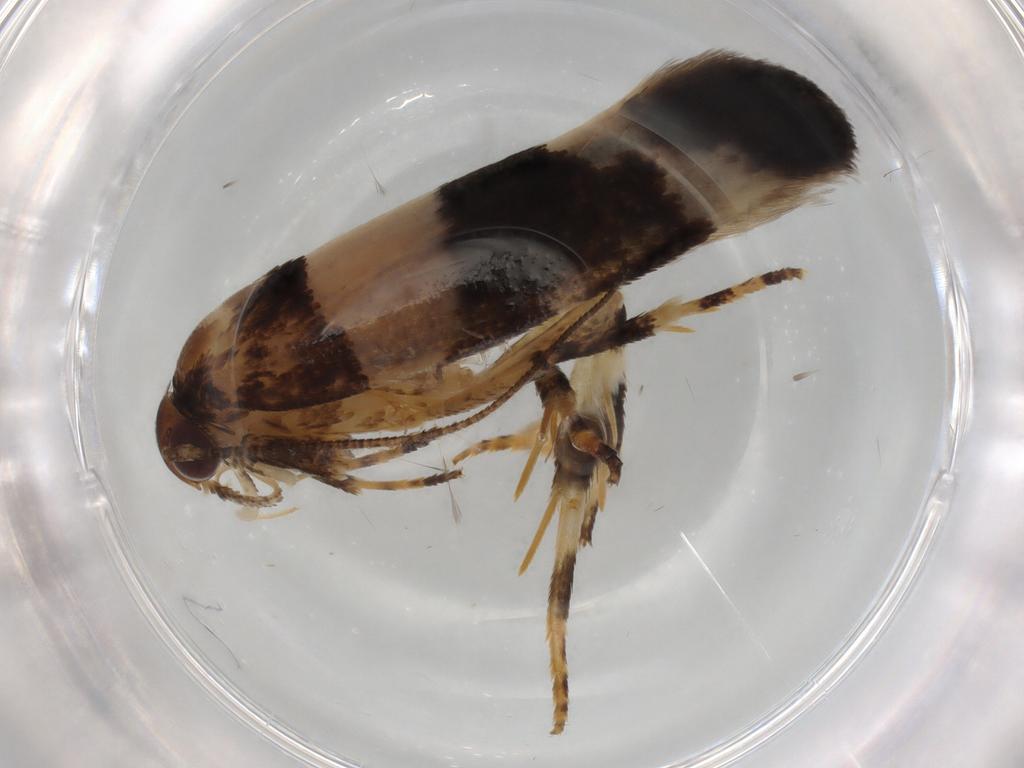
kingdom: Animalia
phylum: Arthropoda
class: Insecta
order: Lepidoptera
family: Cosmopterigidae
